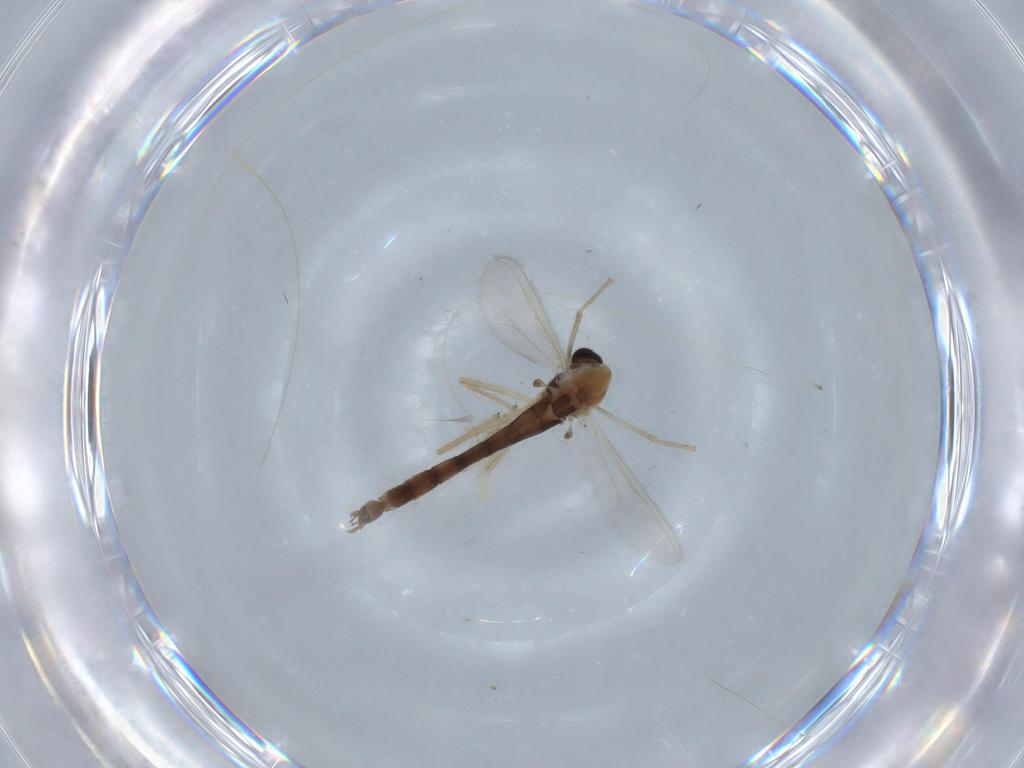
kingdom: Animalia
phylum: Arthropoda
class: Insecta
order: Diptera
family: Chironomidae
